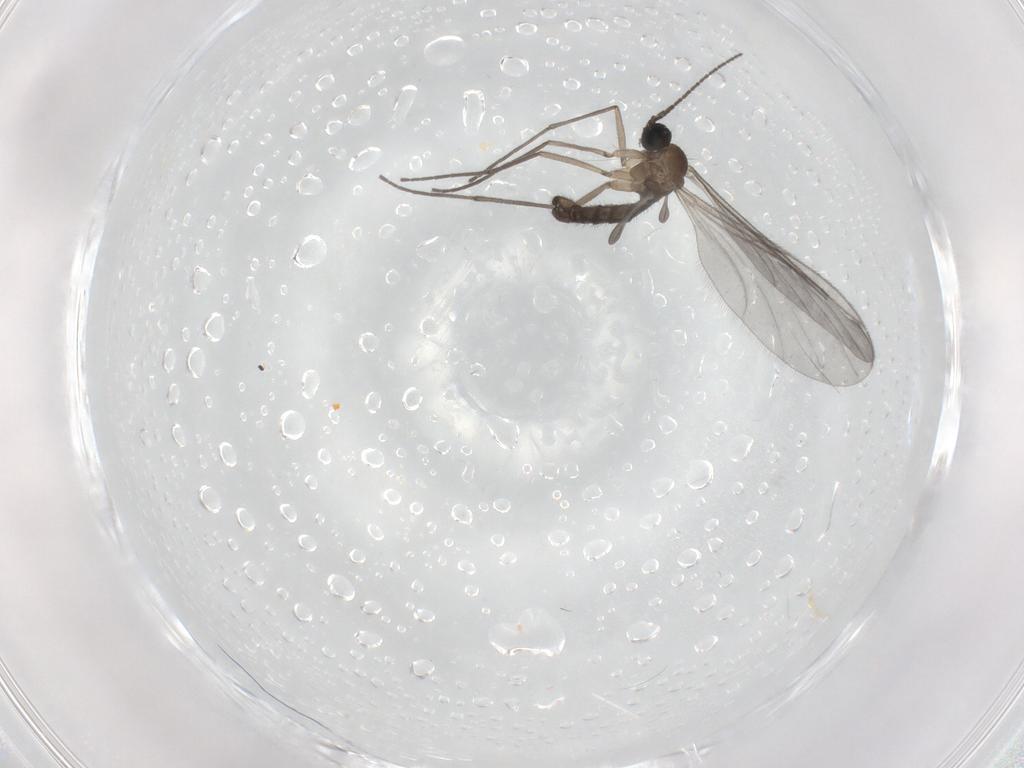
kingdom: Animalia
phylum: Arthropoda
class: Insecta
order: Diptera
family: Sciaridae
